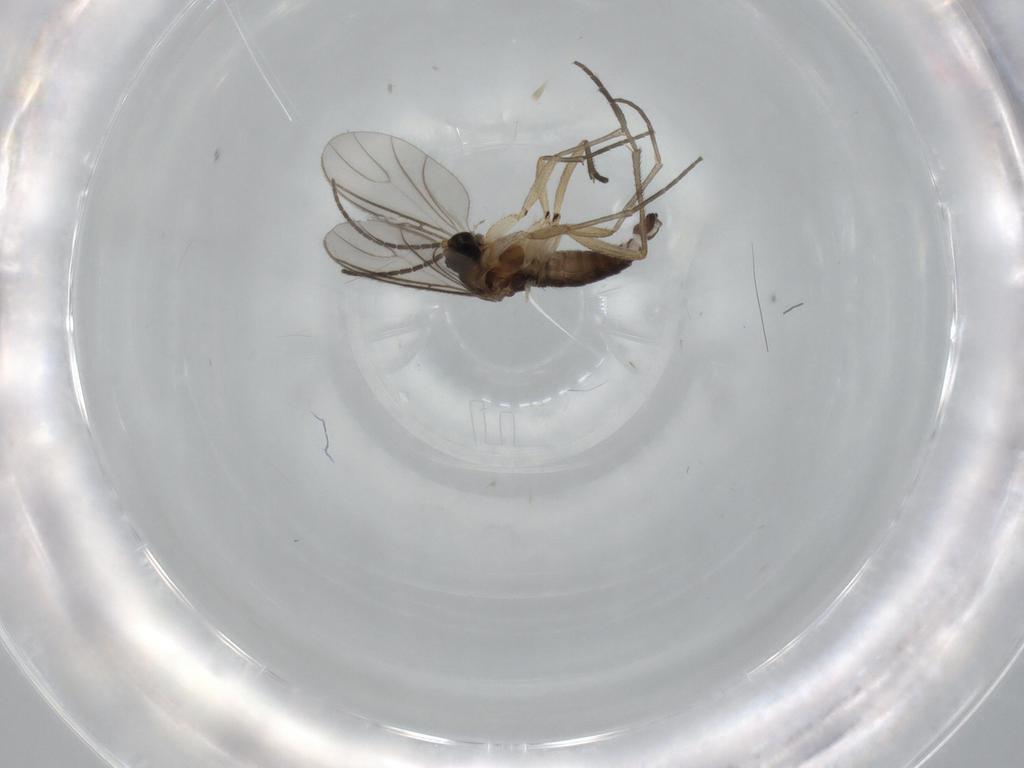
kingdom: Animalia
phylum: Arthropoda
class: Insecta
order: Diptera
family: Sciaridae
